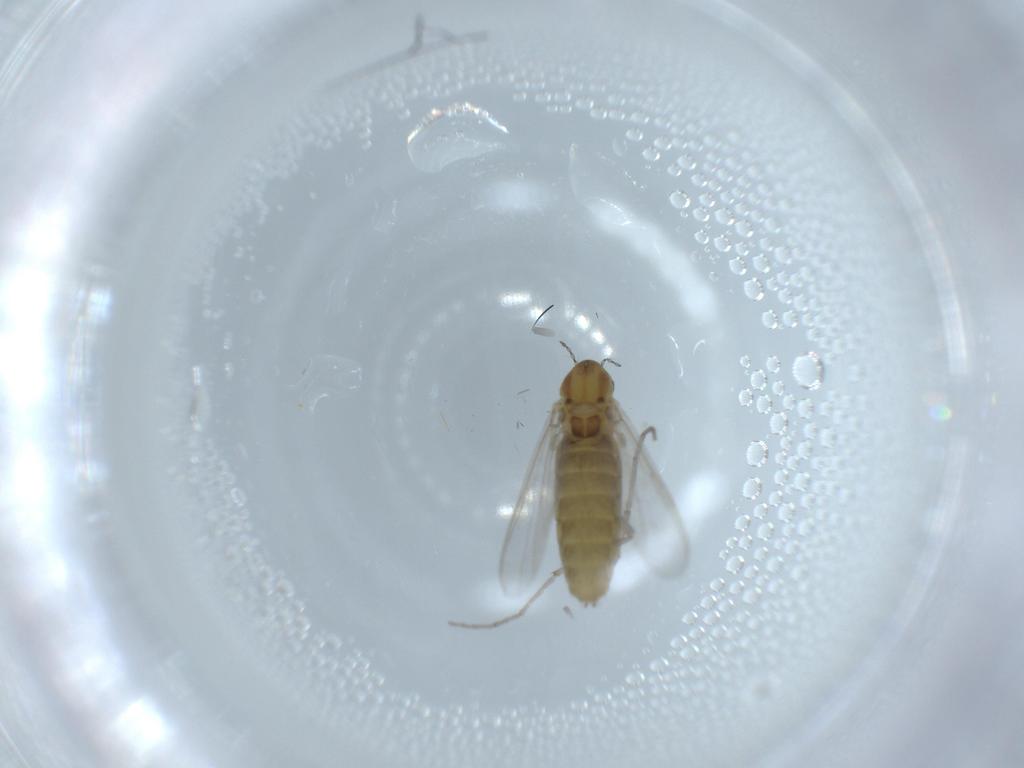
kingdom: Animalia
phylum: Arthropoda
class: Insecta
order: Diptera
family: Chironomidae
